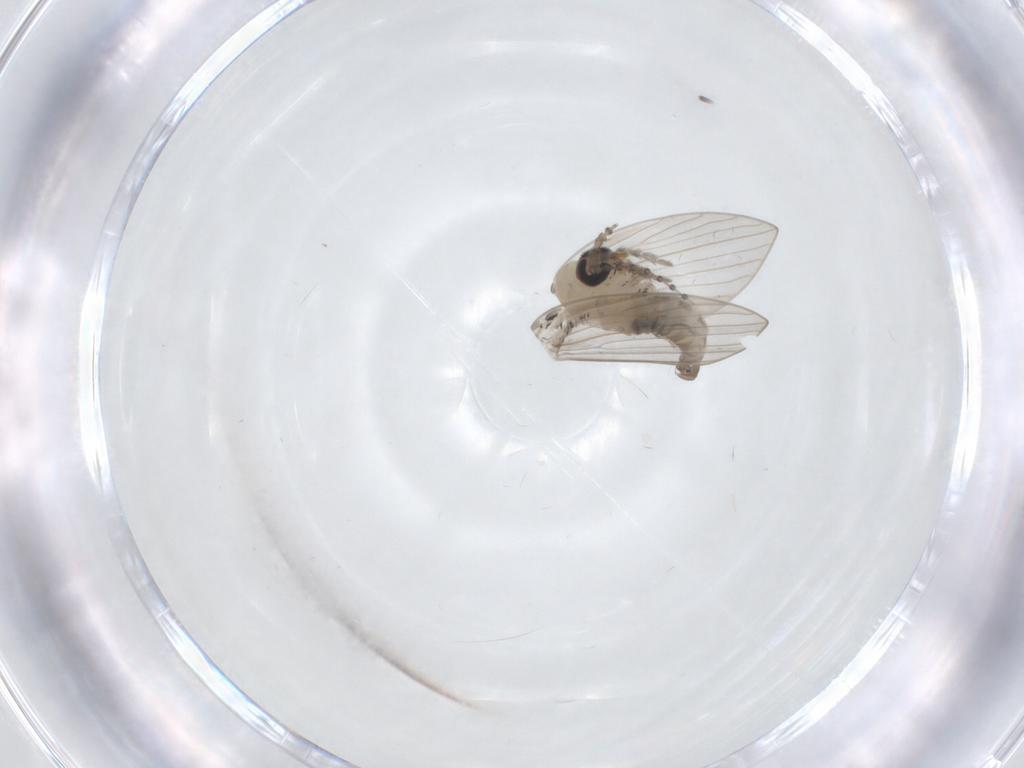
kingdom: Animalia
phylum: Arthropoda
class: Insecta
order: Diptera
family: Psychodidae
